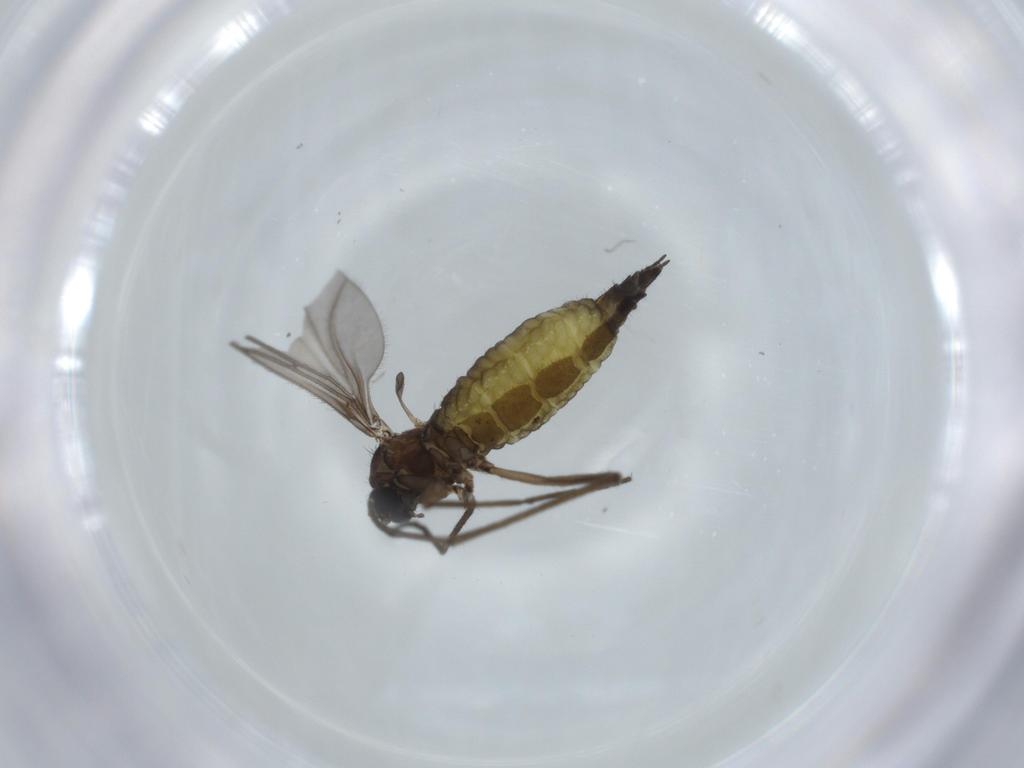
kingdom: Animalia
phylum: Arthropoda
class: Insecta
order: Diptera
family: Sciaridae
